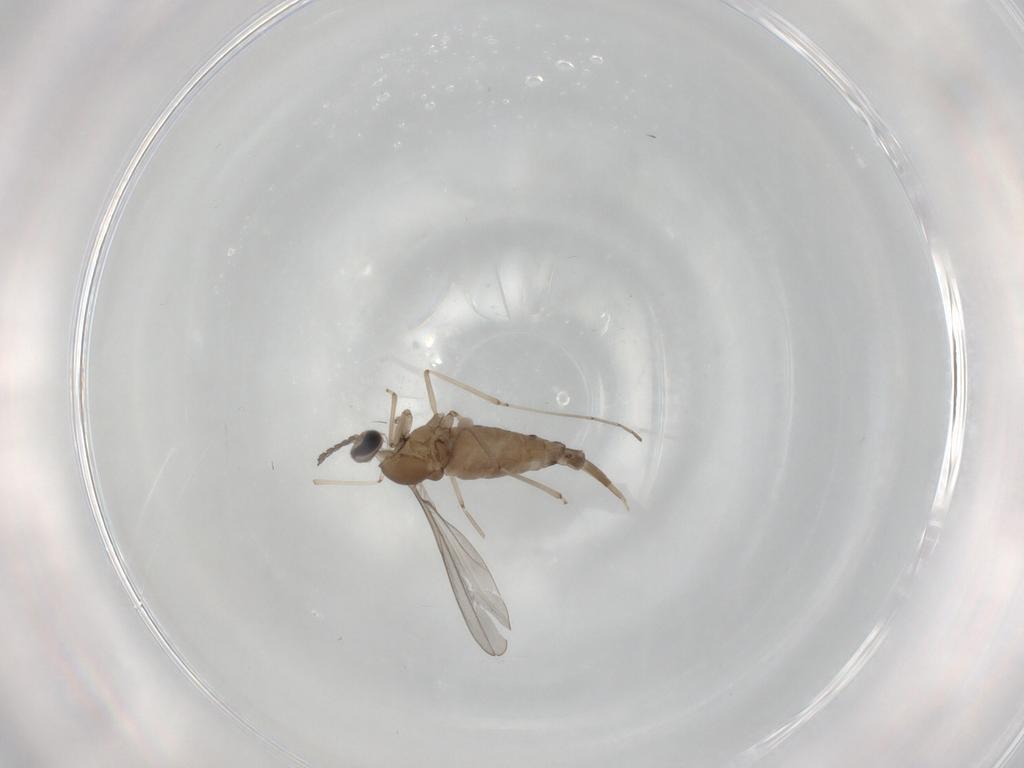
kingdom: Animalia
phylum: Arthropoda
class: Insecta
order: Diptera
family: Cecidomyiidae
